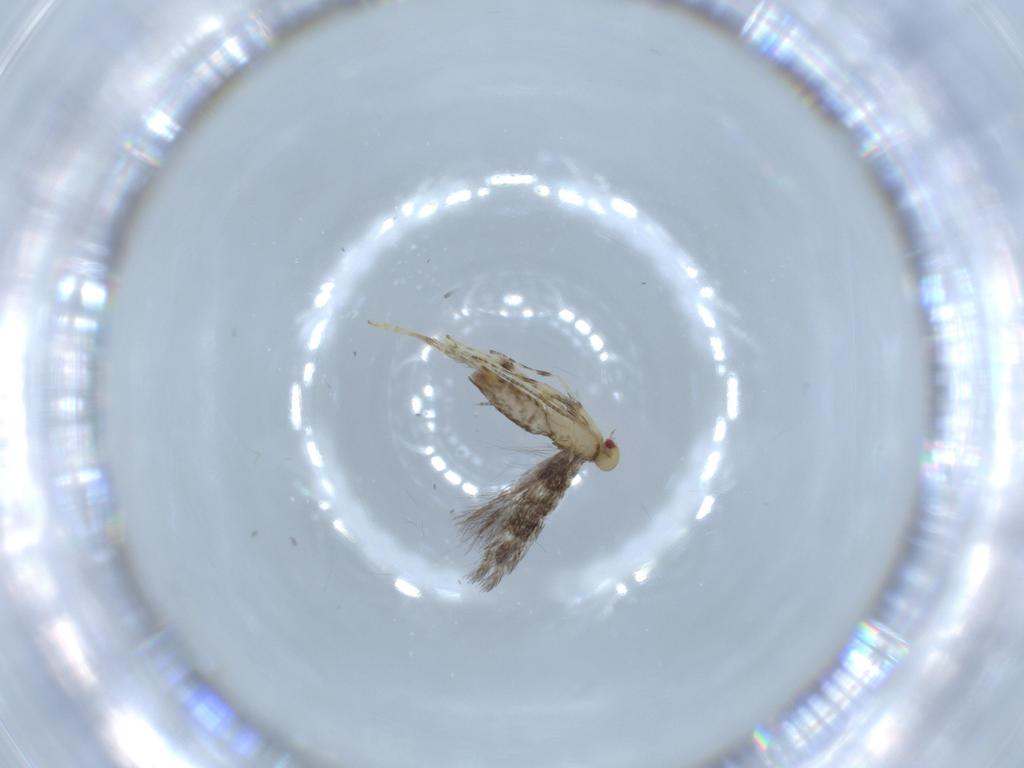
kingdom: Animalia
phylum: Arthropoda
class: Insecta
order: Lepidoptera
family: Gracillariidae
